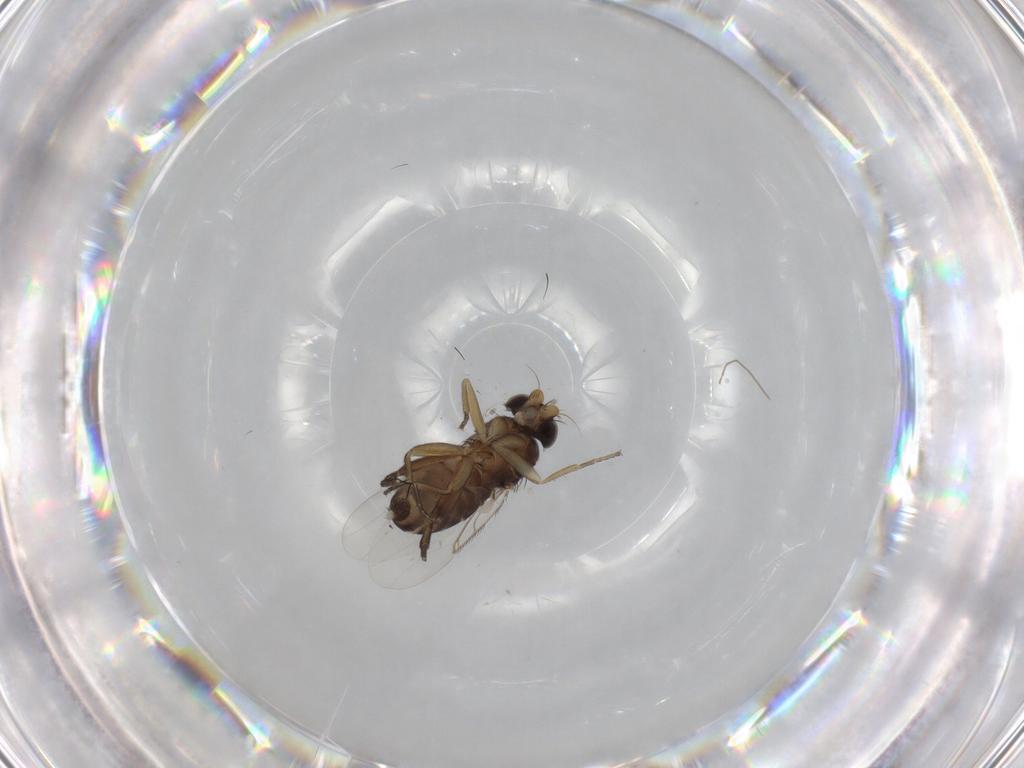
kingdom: Animalia
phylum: Arthropoda
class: Insecta
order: Diptera
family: Phoridae
